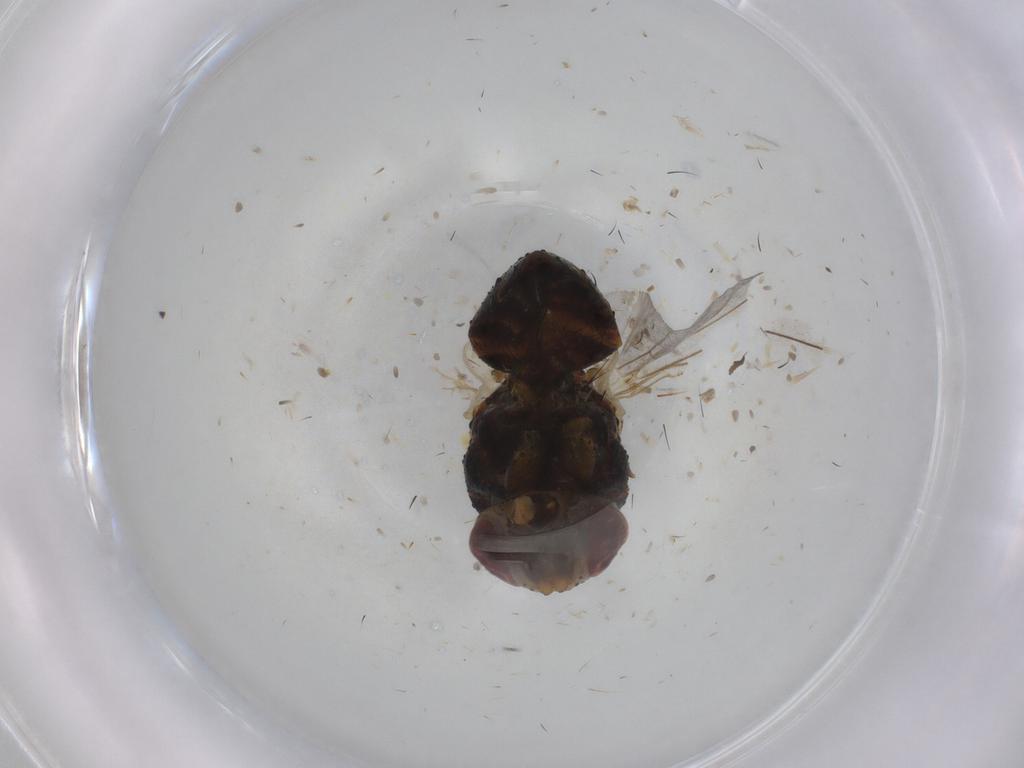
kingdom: Animalia
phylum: Arthropoda
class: Insecta
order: Diptera
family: Calliphoridae
